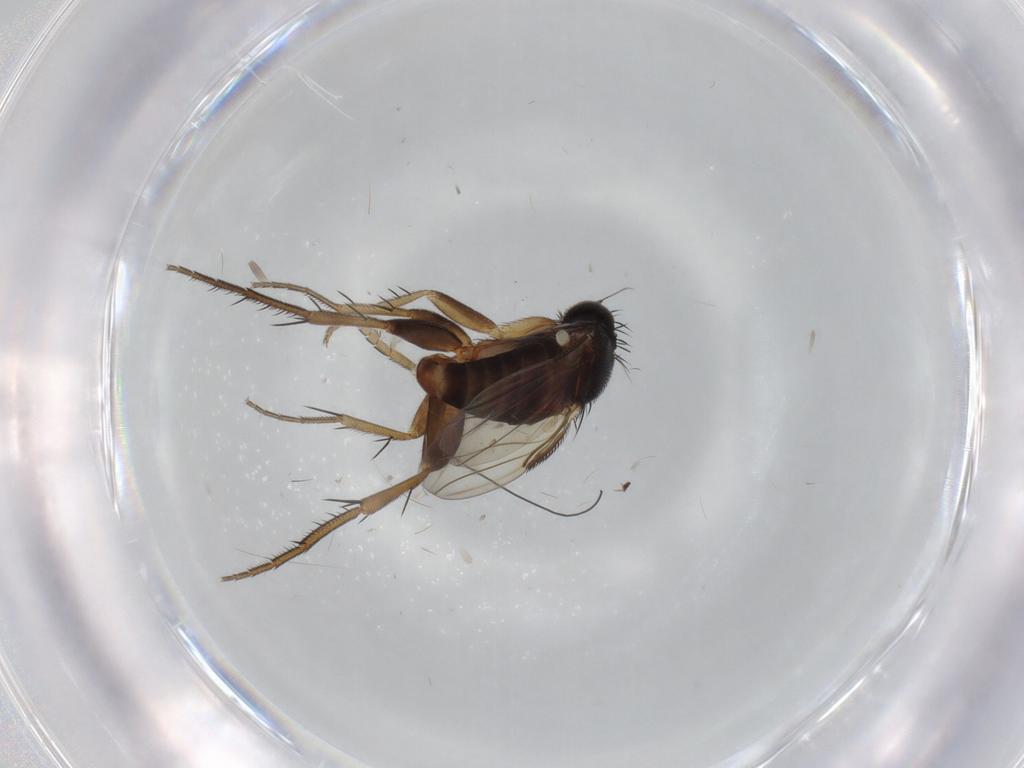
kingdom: Animalia
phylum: Arthropoda
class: Insecta
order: Diptera
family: Phoridae
